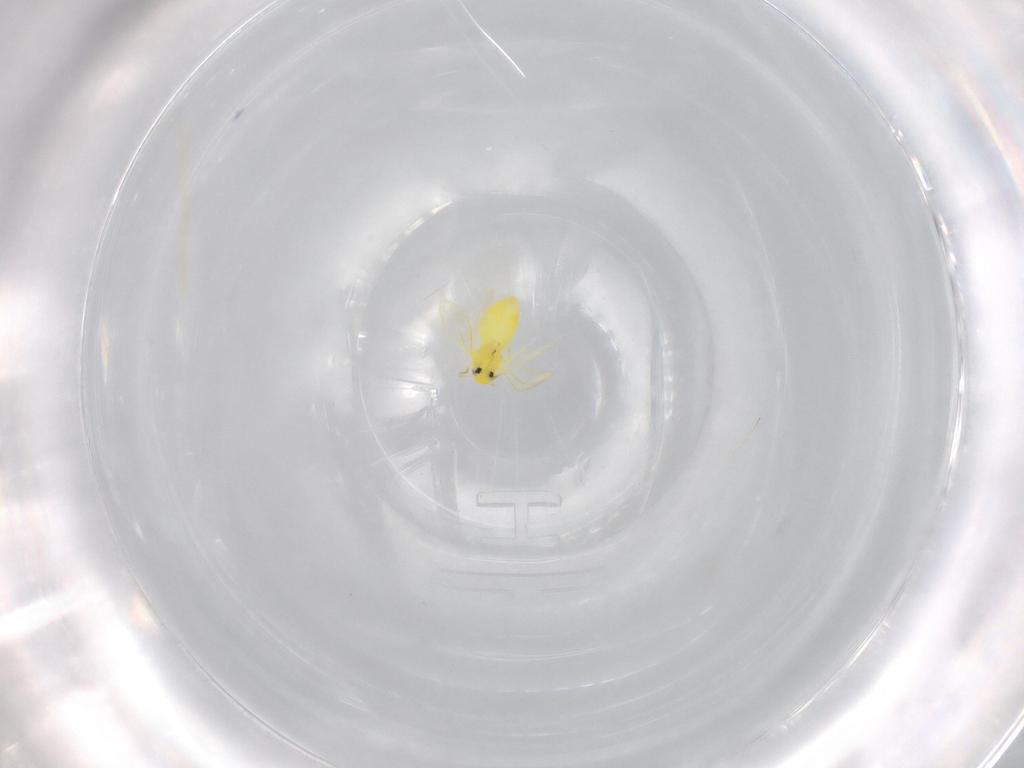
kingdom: Animalia
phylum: Arthropoda
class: Insecta
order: Hemiptera
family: Aleyrodidae
